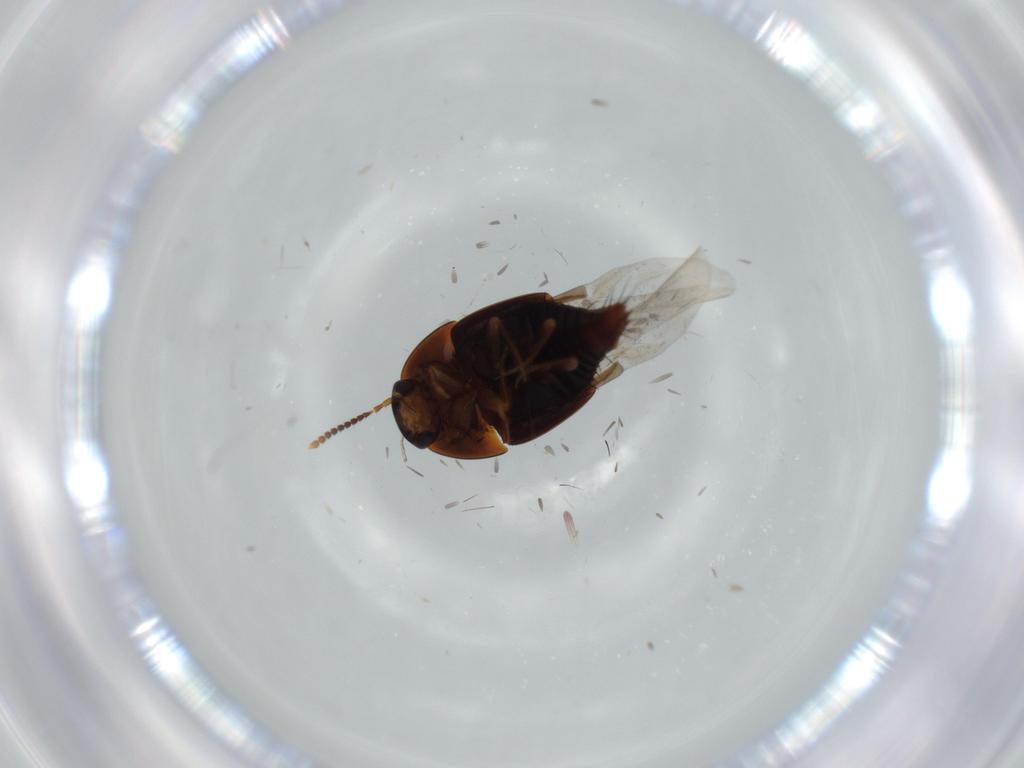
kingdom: Animalia
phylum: Arthropoda
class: Insecta
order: Coleoptera
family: Staphylinidae
